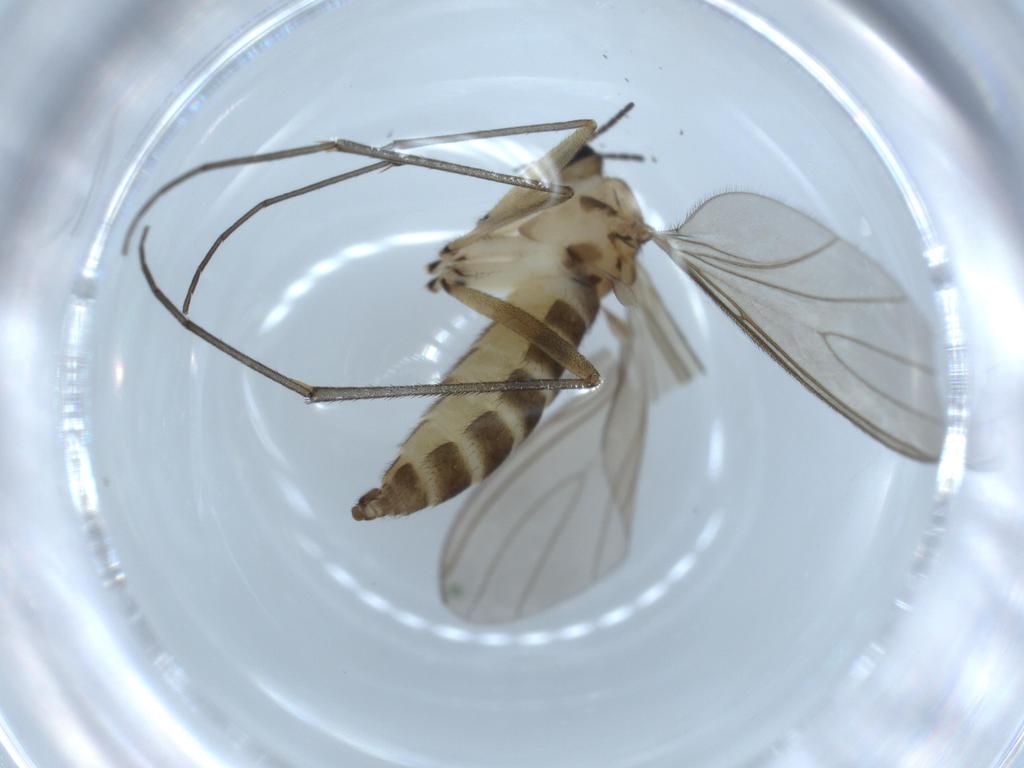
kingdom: Animalia
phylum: Arthropoda
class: Insecta
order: Diptera
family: Sciaridae
